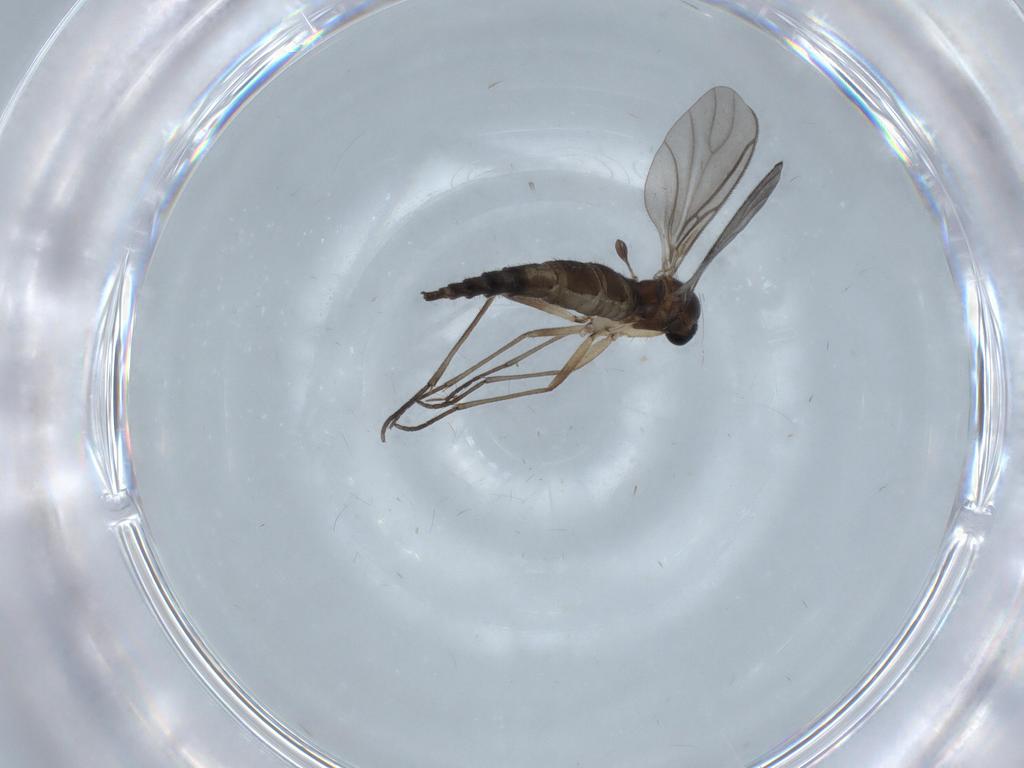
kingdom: Animalia
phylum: Arthropoda
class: Insecta
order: Diptera
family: Sciaridae
